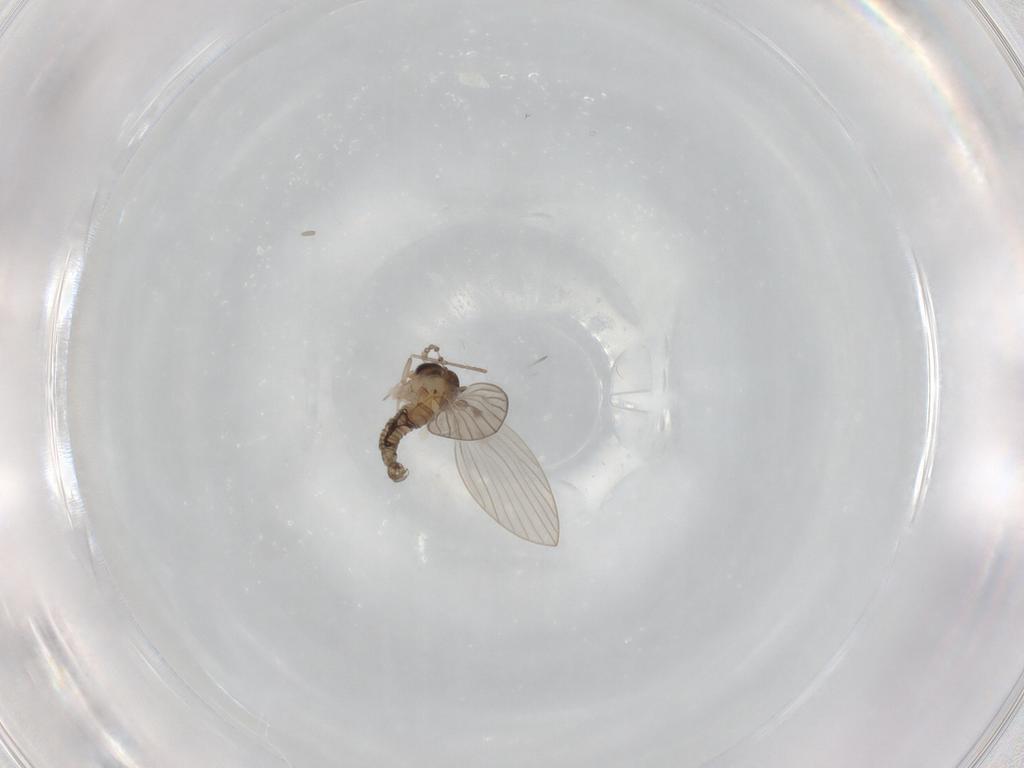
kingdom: Animalia
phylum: Arthropoda
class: Insecta
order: Diptera
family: Psychodidae
